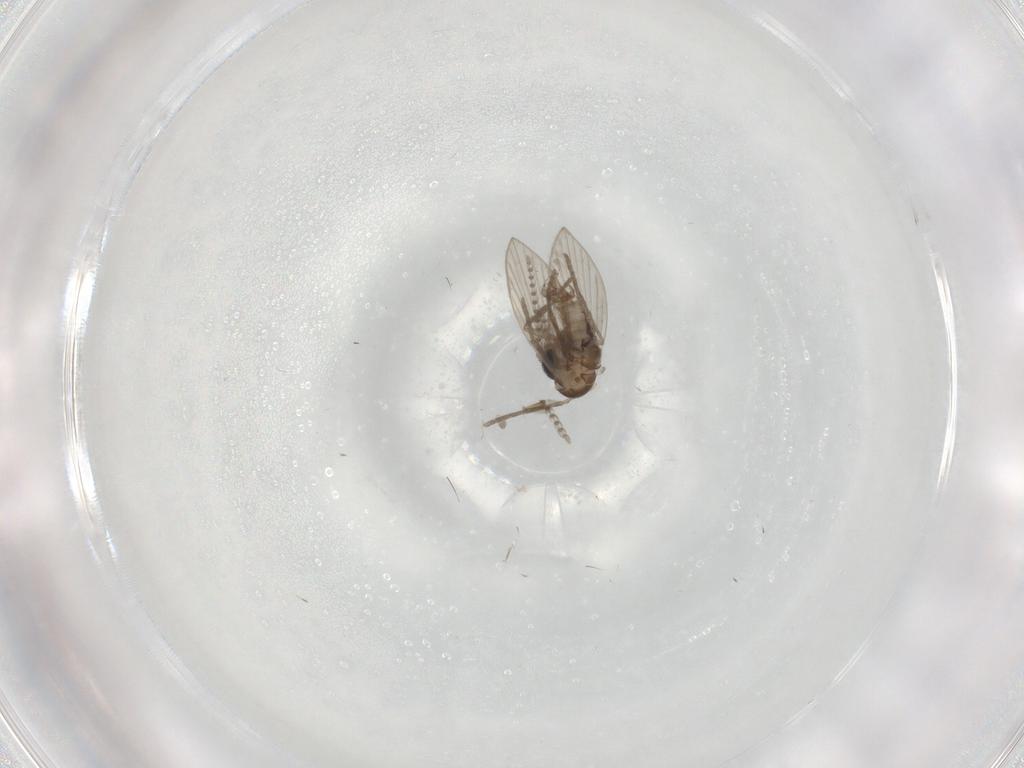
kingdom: Animalia
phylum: Arthropoda
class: Insecta
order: Diptera
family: Psychodidae
